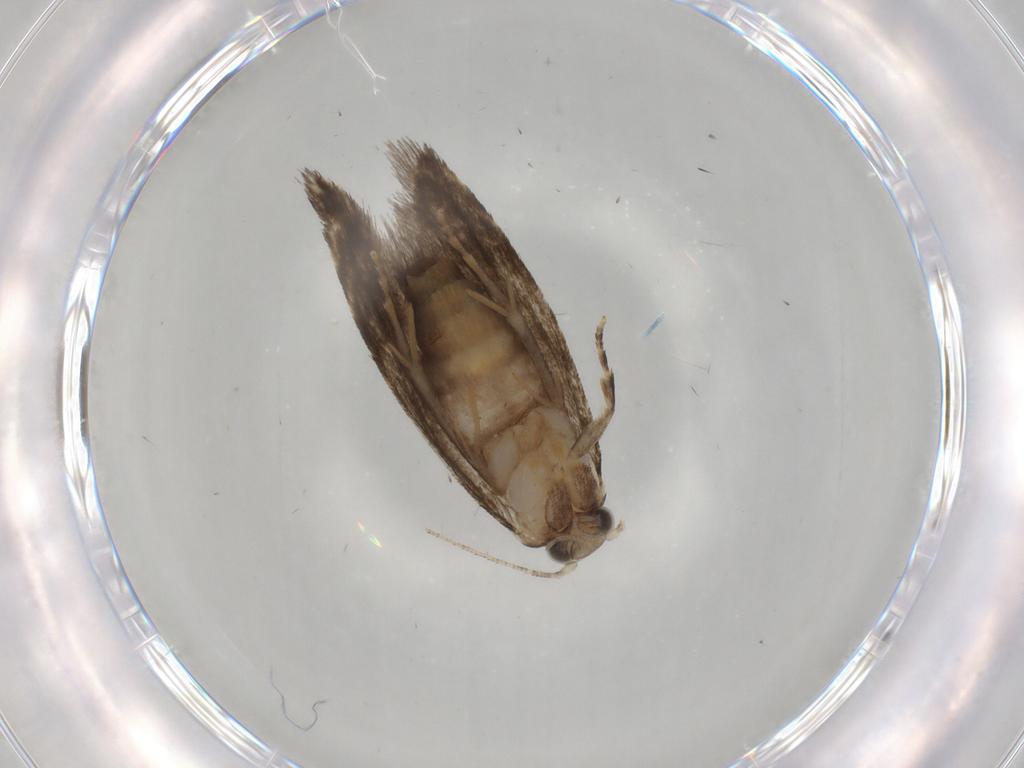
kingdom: Animalia
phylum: Arthropoda
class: Insecta
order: Lepidoptera
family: Tineidae
